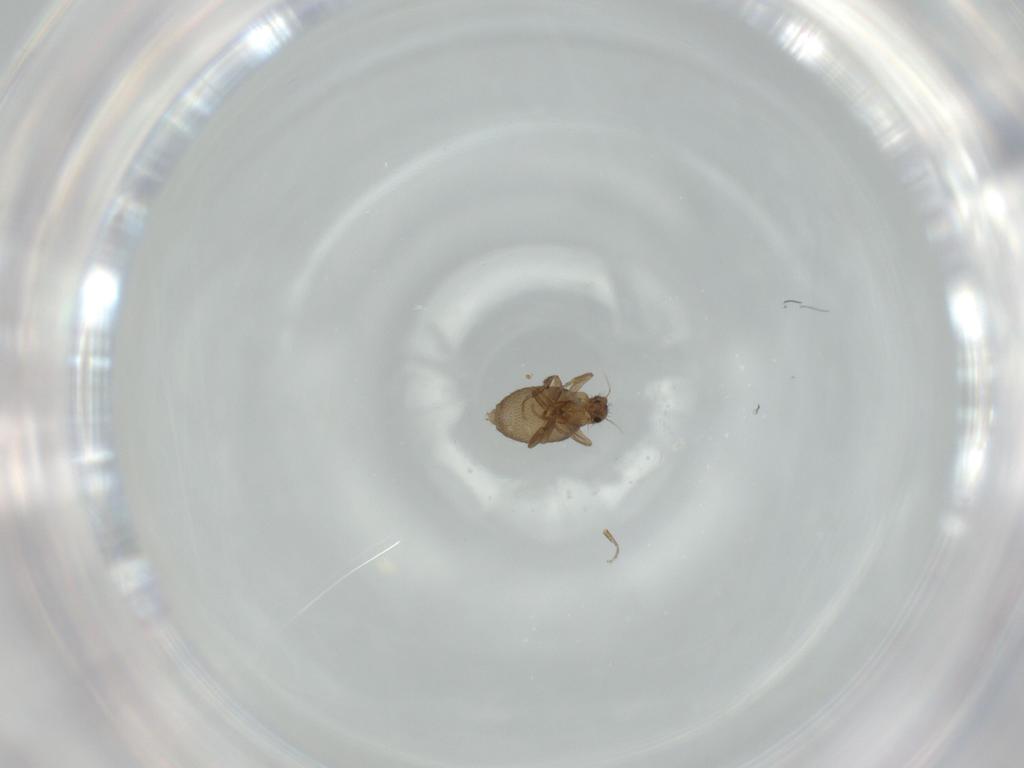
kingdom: Animalia
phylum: Arthropoda
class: Insecta
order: Diptera
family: Phoridae
